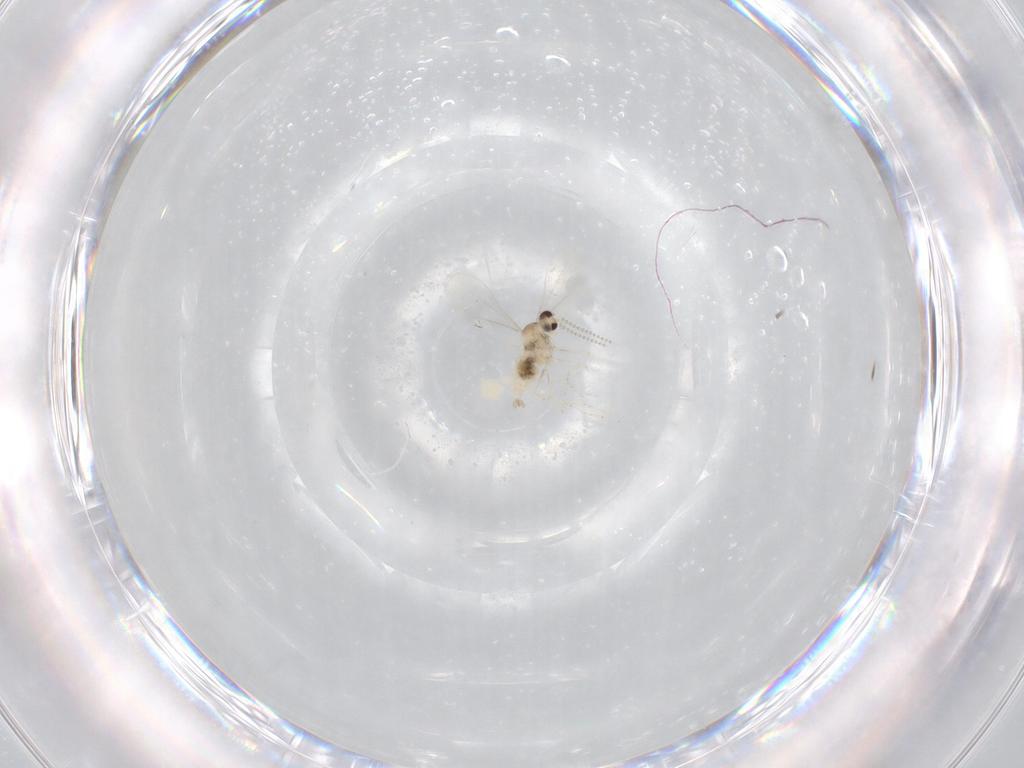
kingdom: Animalia
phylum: Arthropoda
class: Insecta
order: Diptera
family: Cecidomyiidae
